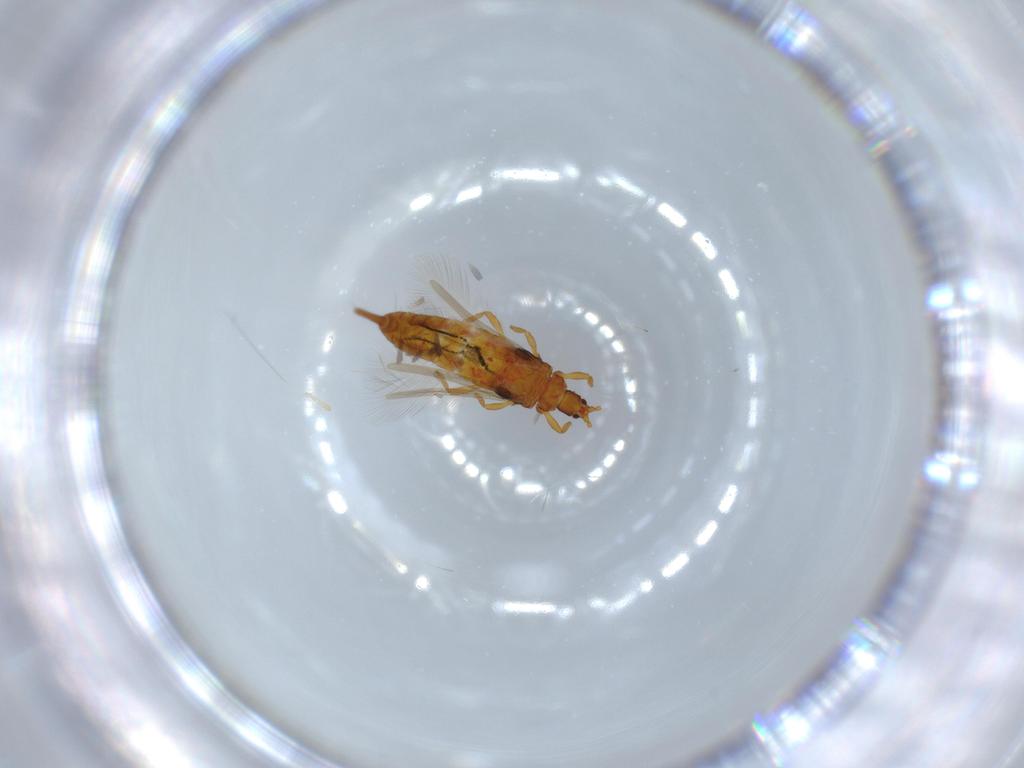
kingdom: Animalia
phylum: Arthropoda
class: Insecta
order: Thysanoptera
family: Phlaeothripidae
